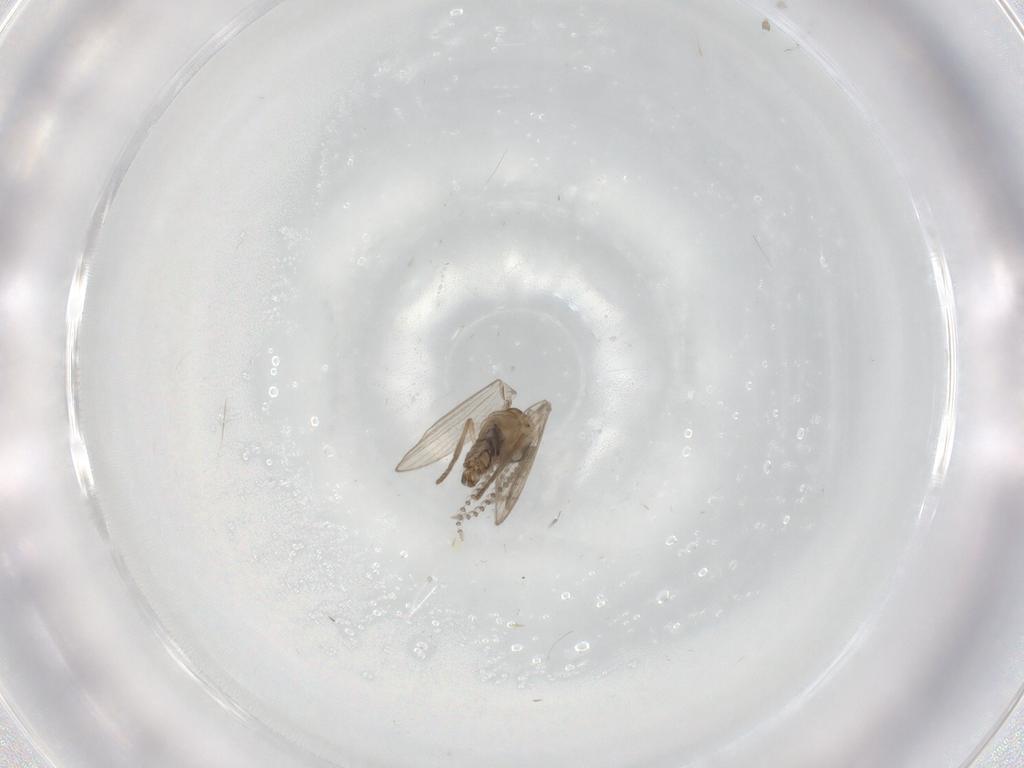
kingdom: Animalia
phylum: Arthropoda
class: Insecta
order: Diptera
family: Psychodidae
